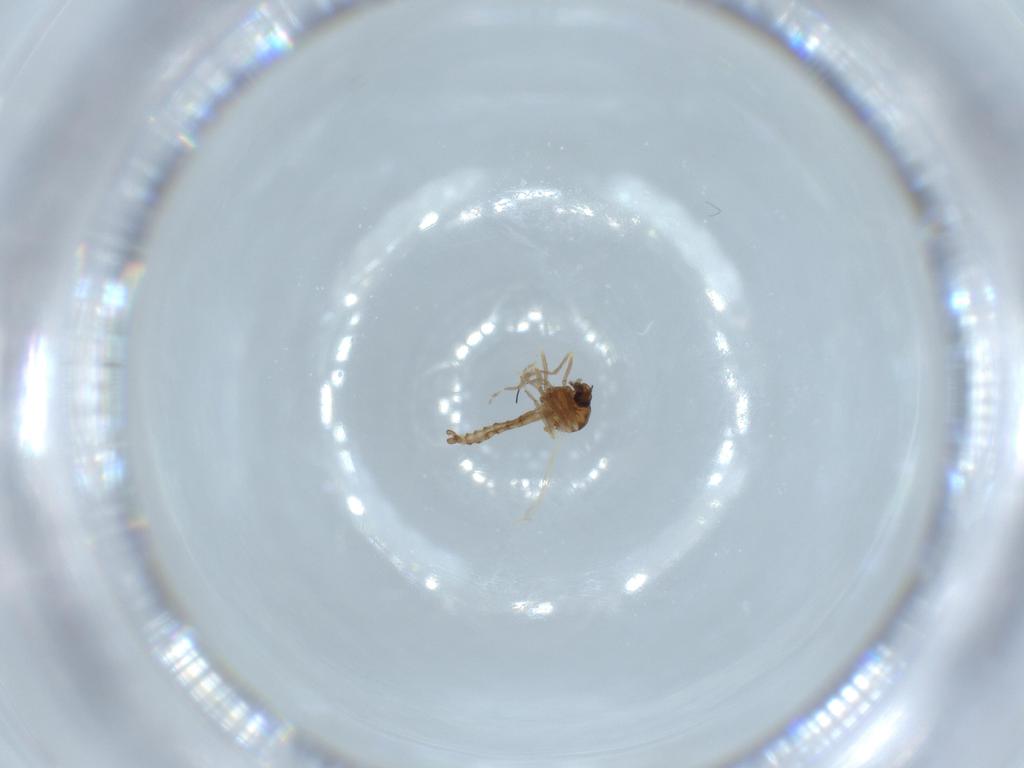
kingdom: Animalia
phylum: Arthropoda
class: Insecta
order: Diptera
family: Ceratopogonidae
